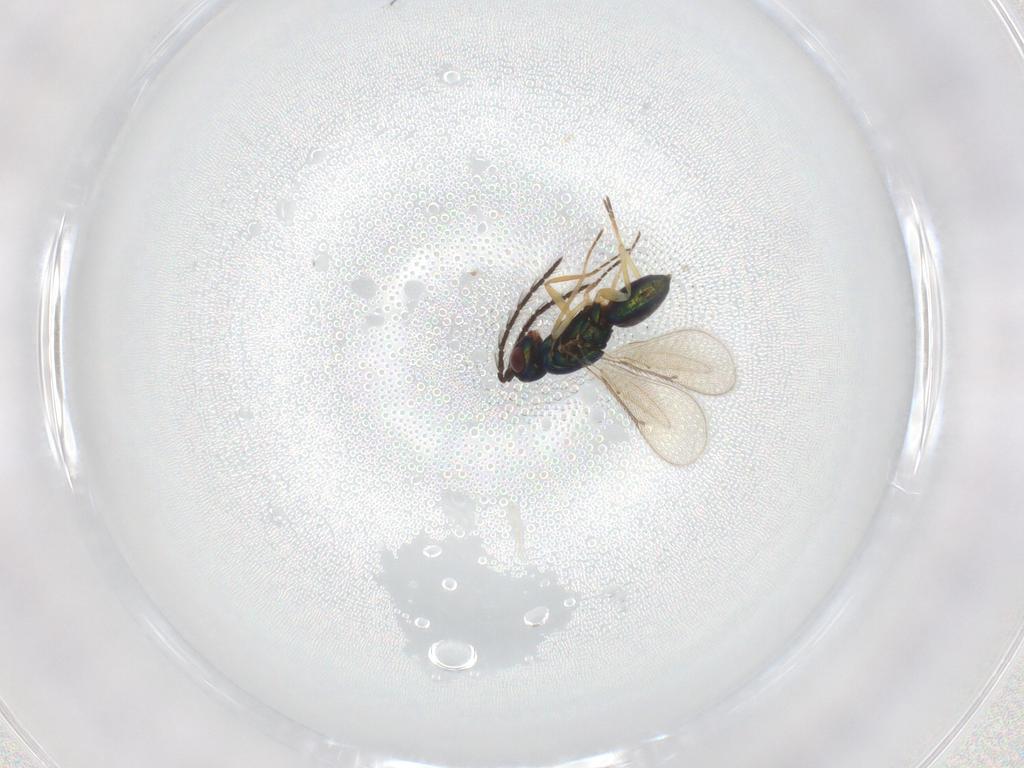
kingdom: Animalia
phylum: Arthropoda
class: Insecta
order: Hymenoptera
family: Eulophidae
